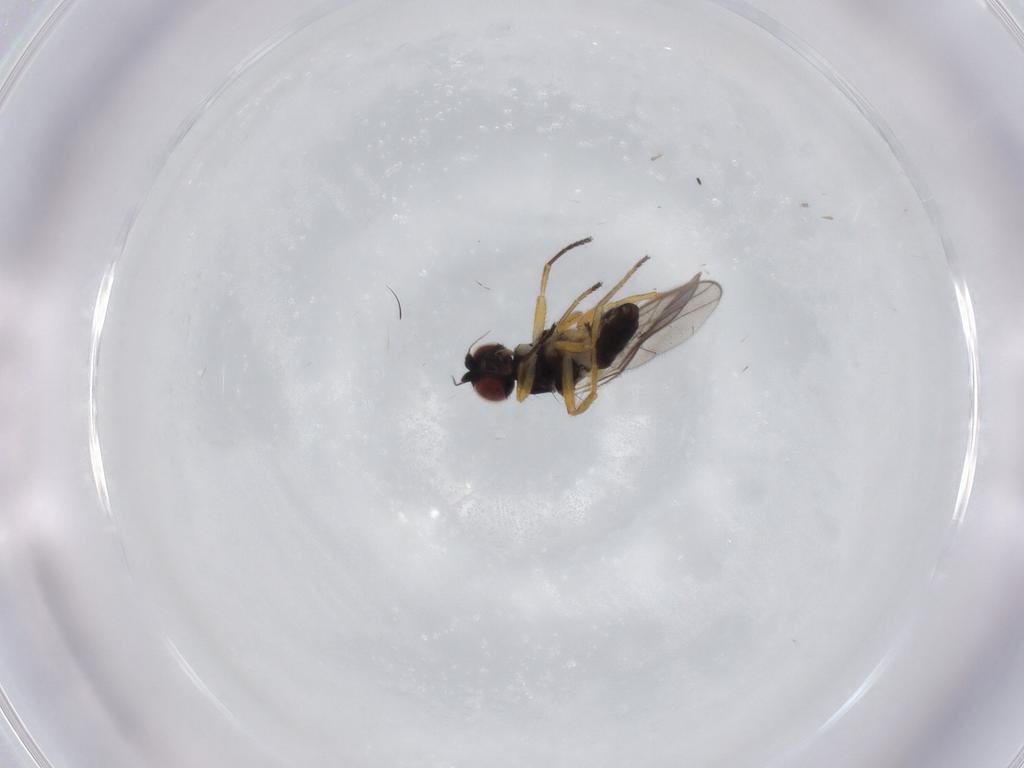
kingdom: Animalia
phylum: Arthropoda
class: Insecta
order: Diptera
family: Chloropidae
